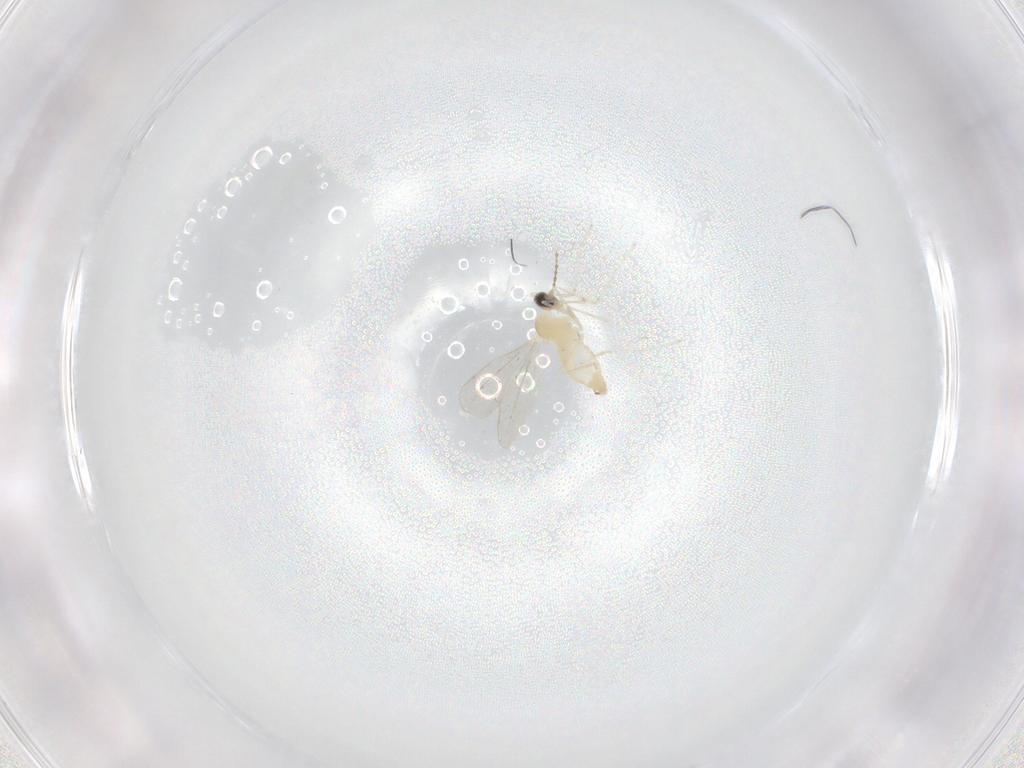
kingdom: Animalia
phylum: Arthropoda
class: Insecta
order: Diptera
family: Cecidomyiidae
